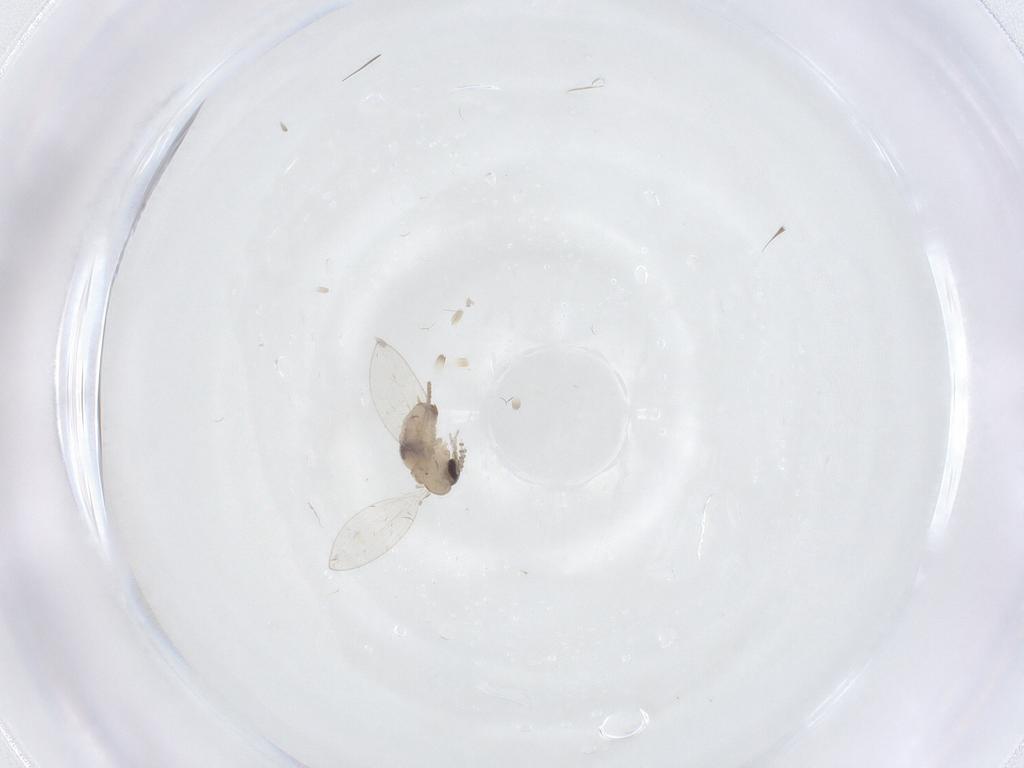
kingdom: Animalia
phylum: Arthropoda
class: Insecta
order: Diptera
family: Psychodidae
